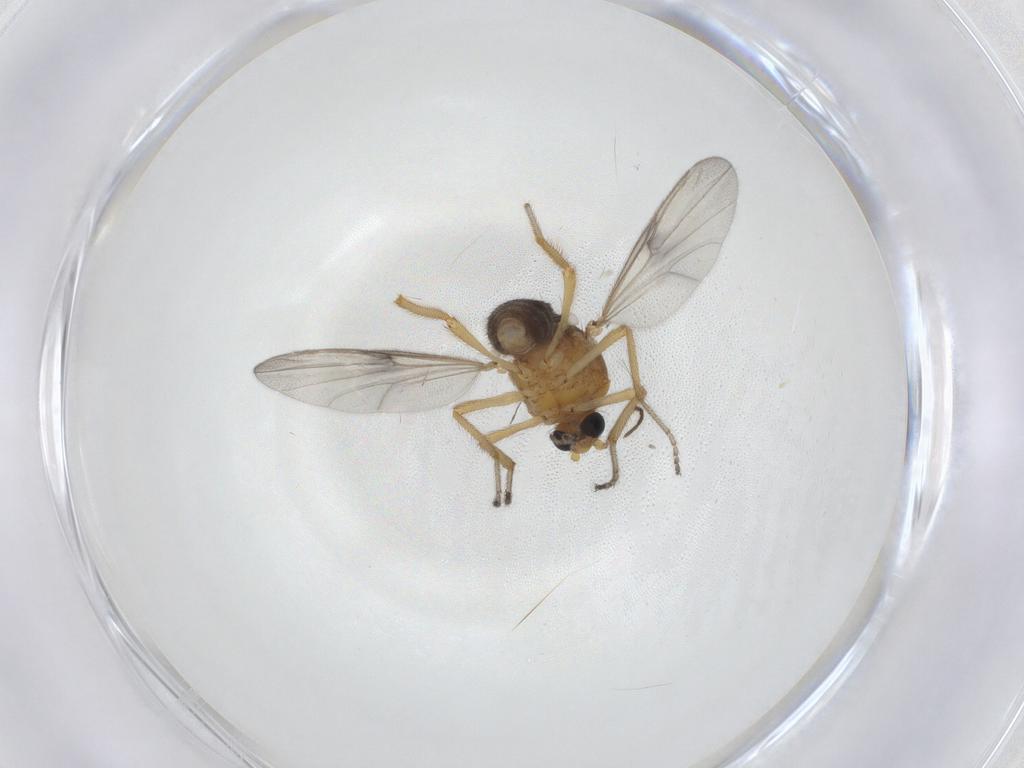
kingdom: Animalia
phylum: Arthropoda
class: Insecta
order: Diptera
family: Ceratopogonidae
